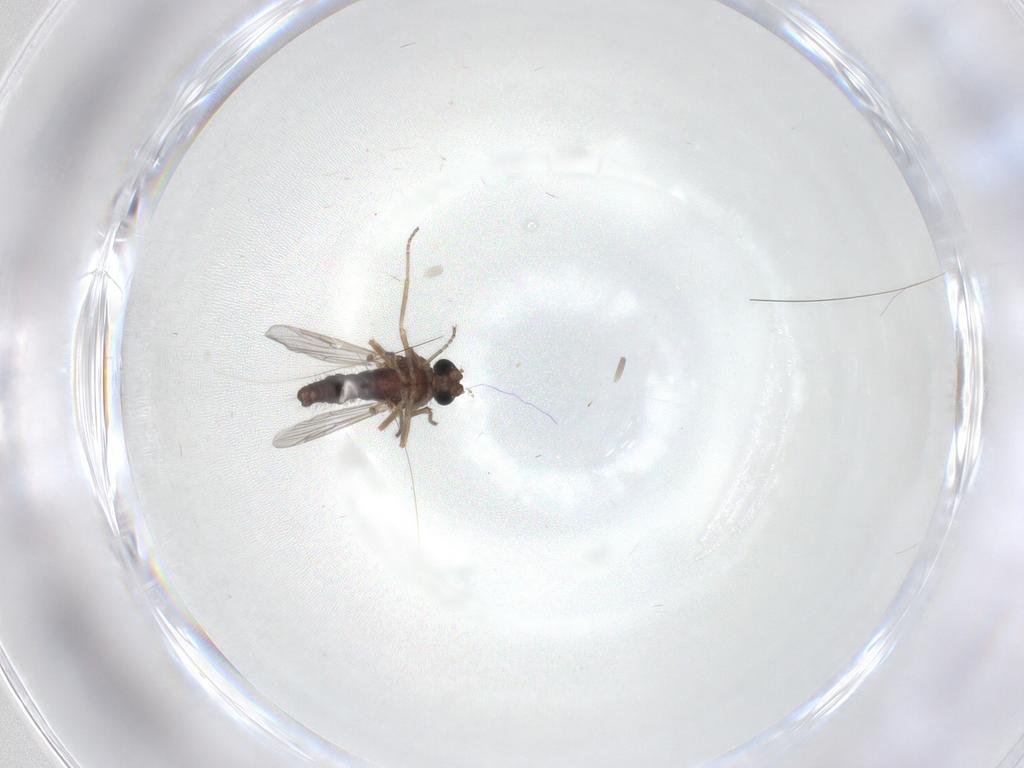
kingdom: Animalia
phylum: Arthropoda
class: Insecta
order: Diptera
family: Ceratopogonidae
